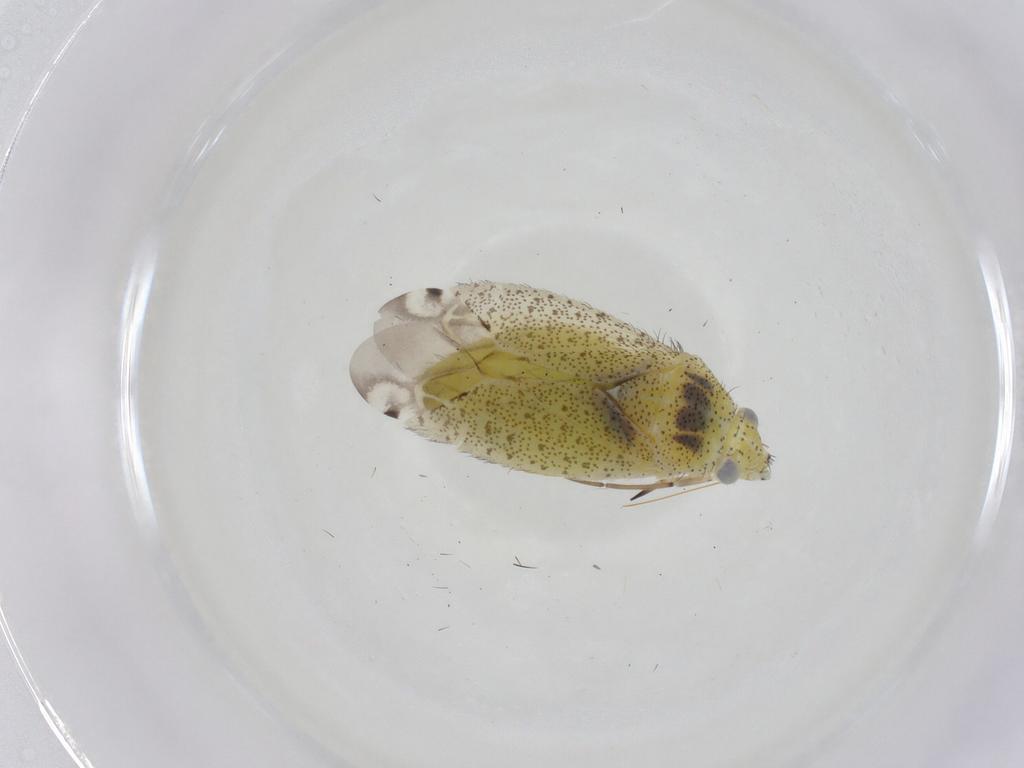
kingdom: Animalia
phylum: Arthropoda
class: Insecta
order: Hemiptera
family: Miridae
